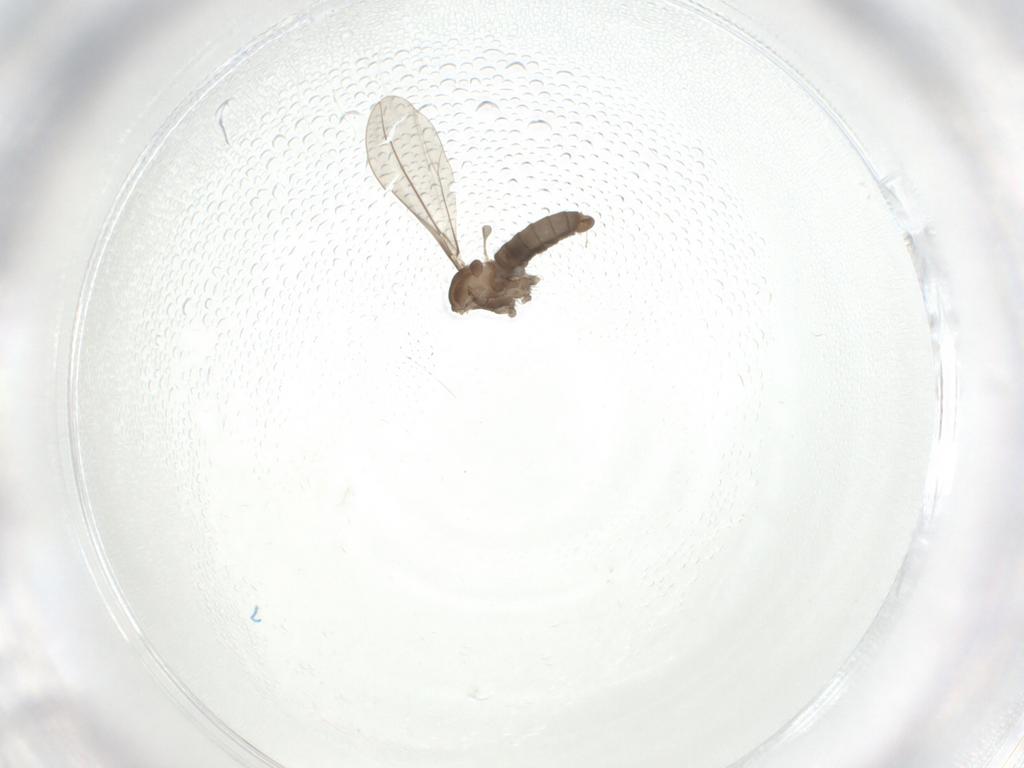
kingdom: Animalia
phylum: Arthropoda
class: Insecta
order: Diptera
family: Cecidomyiidae
